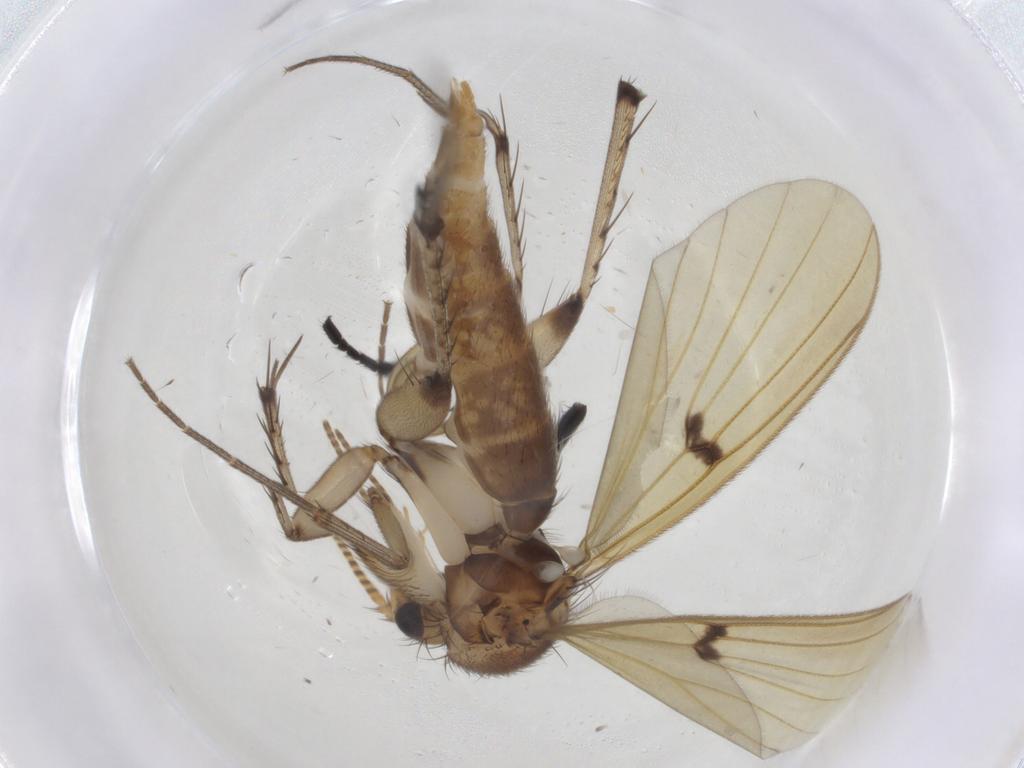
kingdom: Animalia
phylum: Arthropoda
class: Insecta
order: Diptera
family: Mycetophilidae
